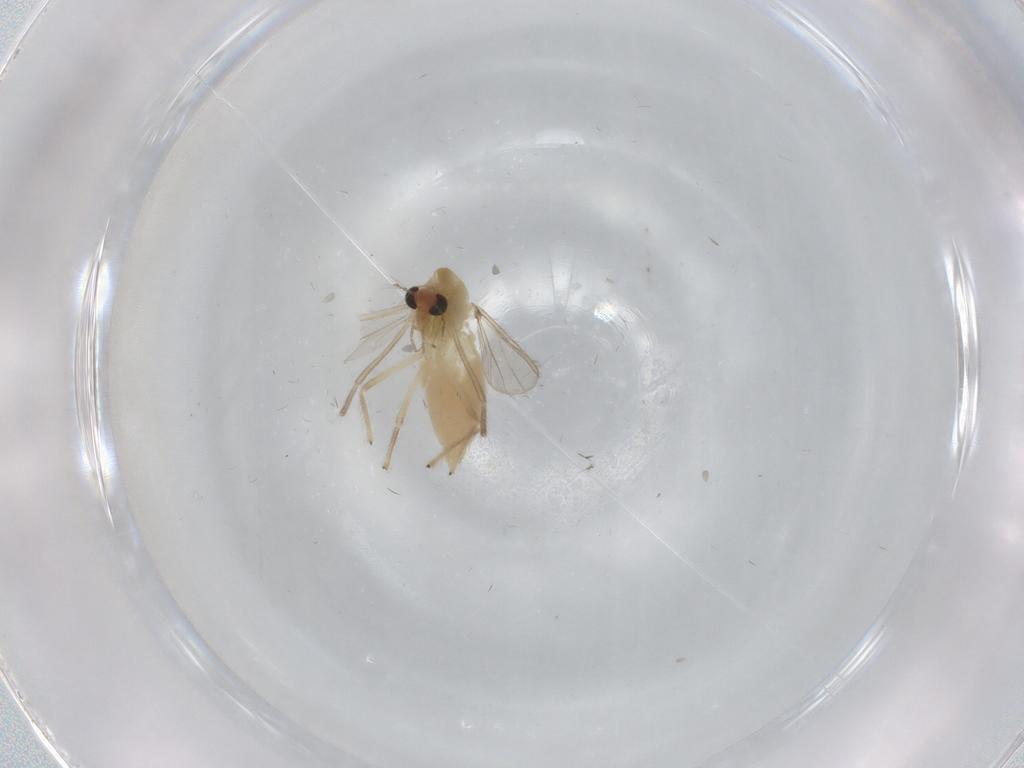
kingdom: Animalia
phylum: Arthropoda
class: Insecta
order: Diptera
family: Chironomidae
